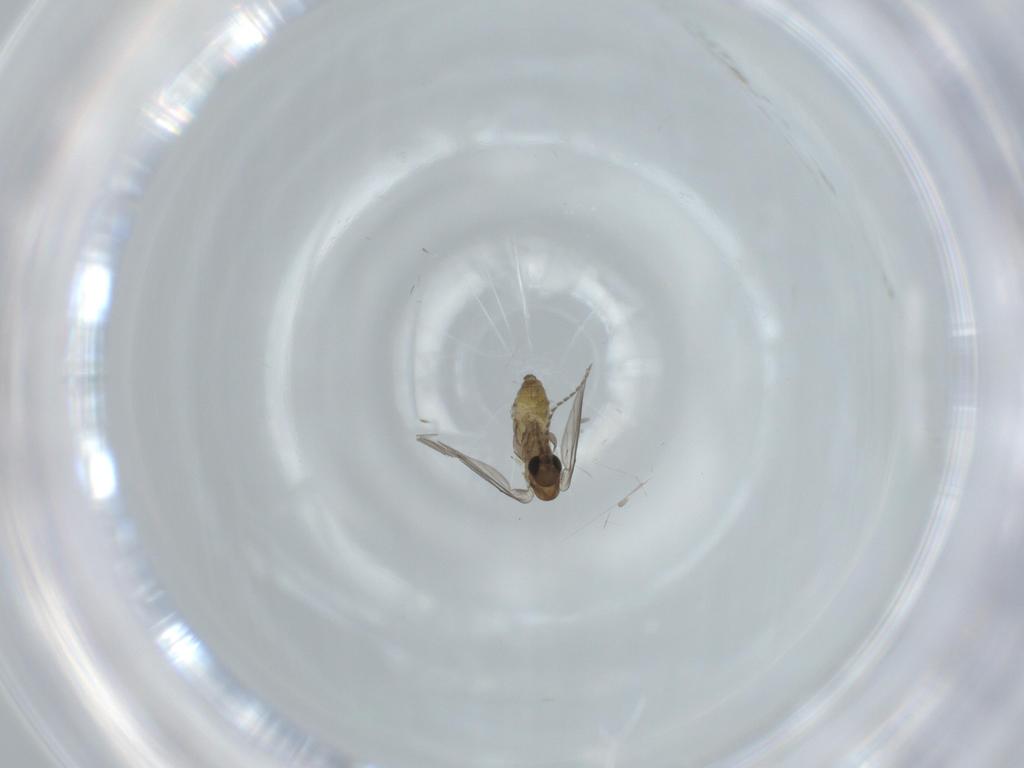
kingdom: Animalia
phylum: Arthropoda
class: Insecta
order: Diptera
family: Psychodidae
